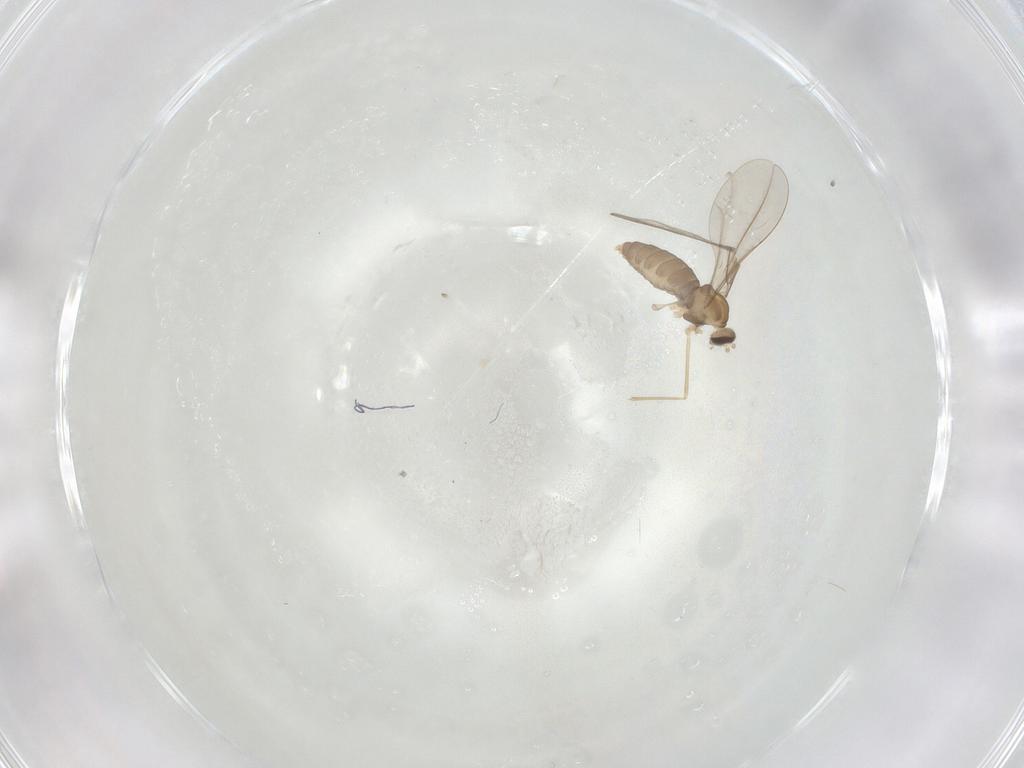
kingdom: Animalia
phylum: Arthropoda
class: Insecta
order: Diptera
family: Cecidomyiidae
